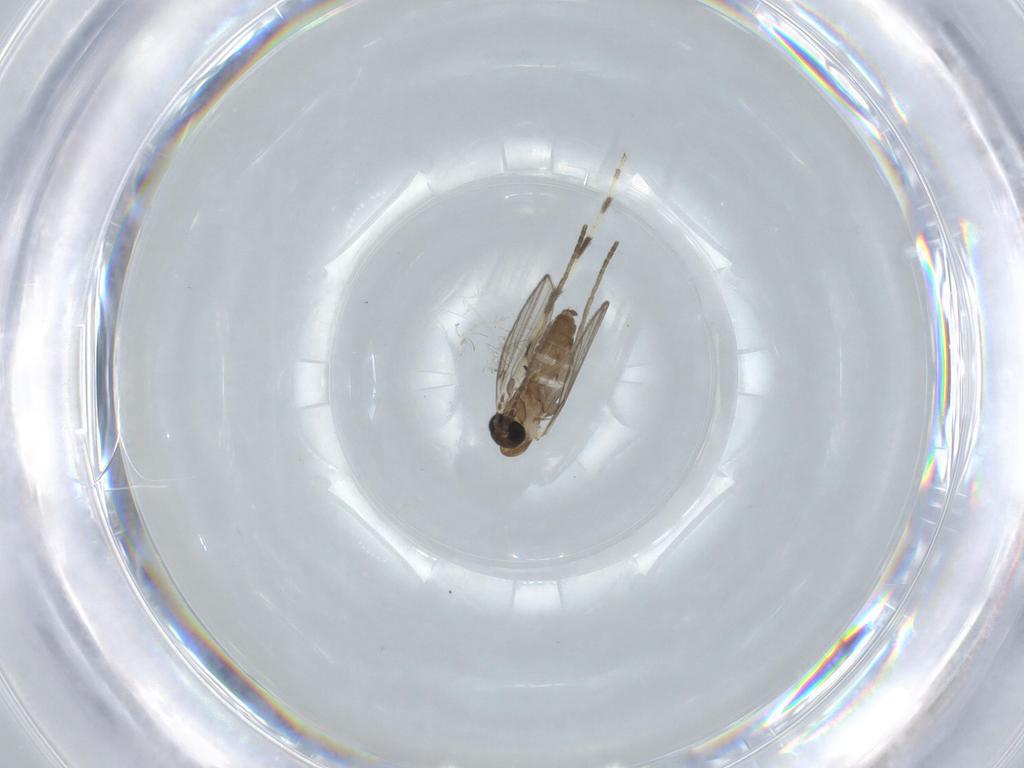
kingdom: Animalia
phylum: Arthropoda
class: Insecta
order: Diptera
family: Chironomidae
